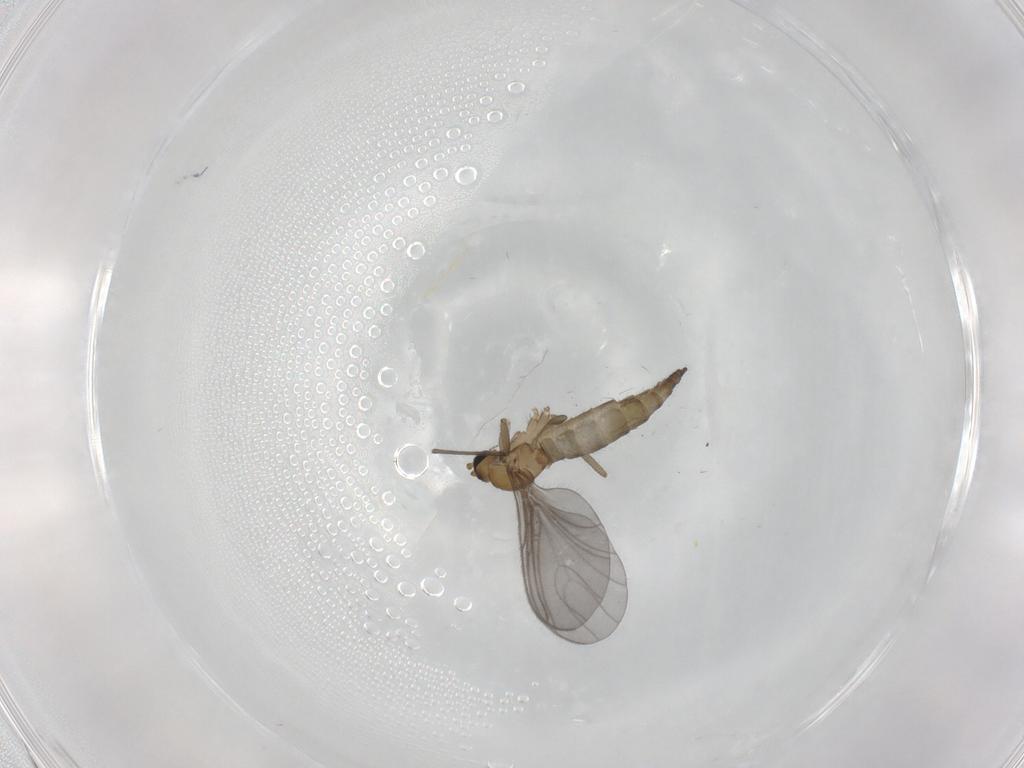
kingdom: Animalia
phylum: Arthropoda
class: Insecta
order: Diptera
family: Sciaridae
